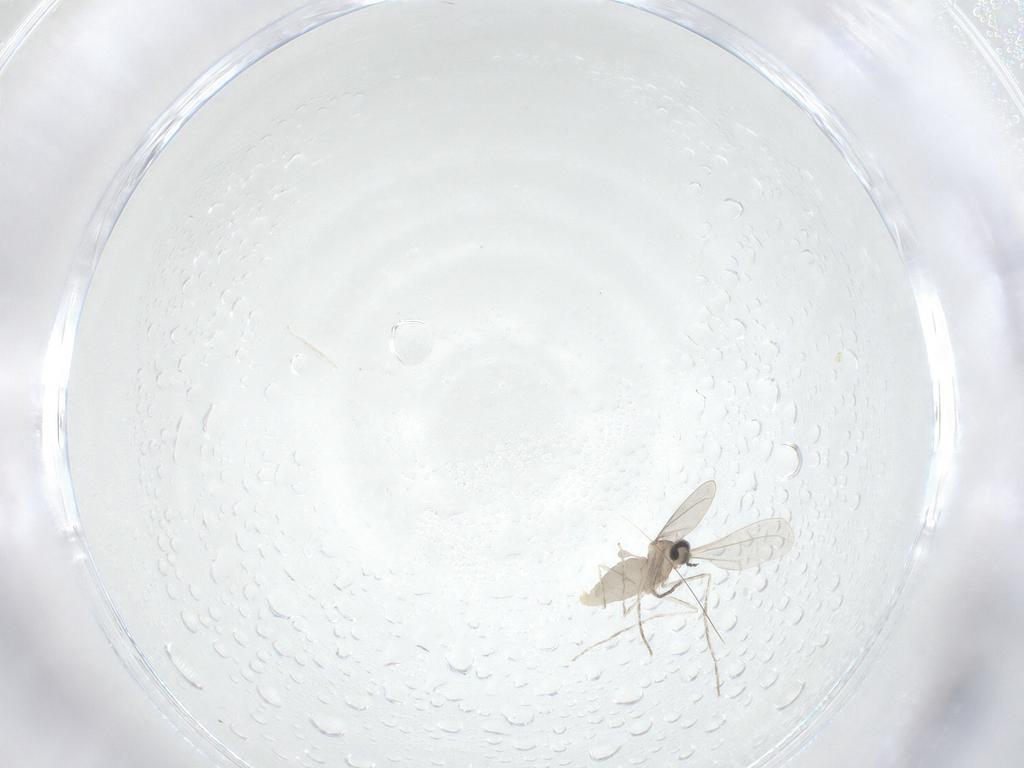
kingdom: Animalia
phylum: Arthropoda
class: Insecta
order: Diptera
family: Cecidomyiidae
